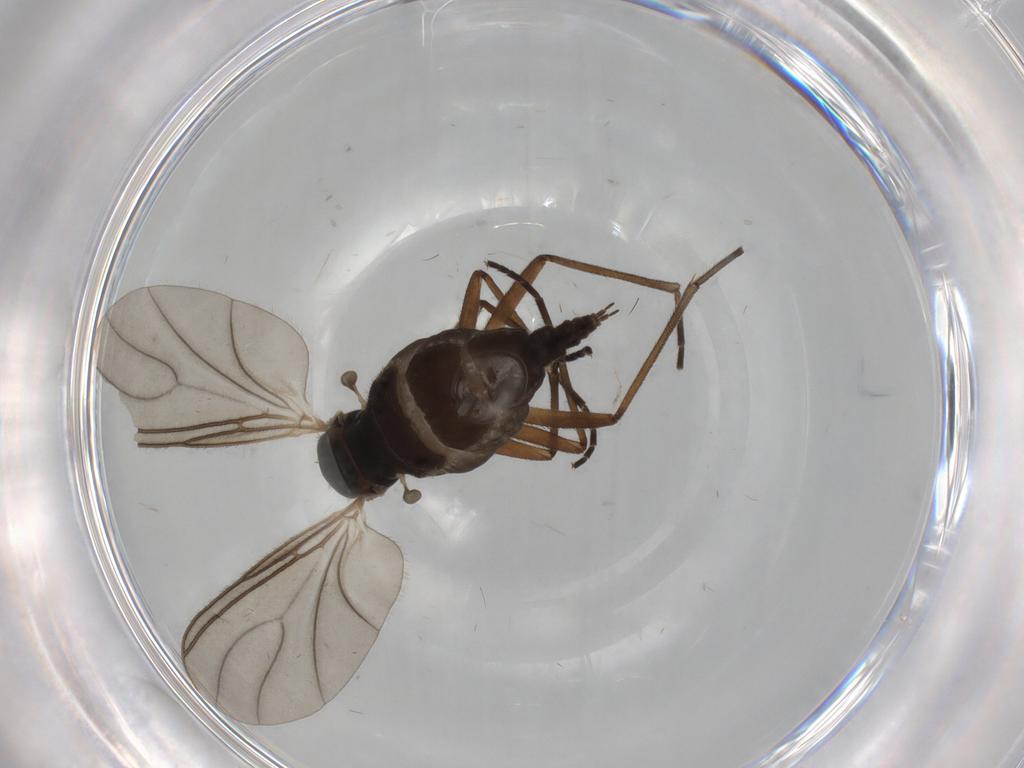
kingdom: Animalia
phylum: Arthropoda
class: Insecta
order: Diptera
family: Sciaridae
